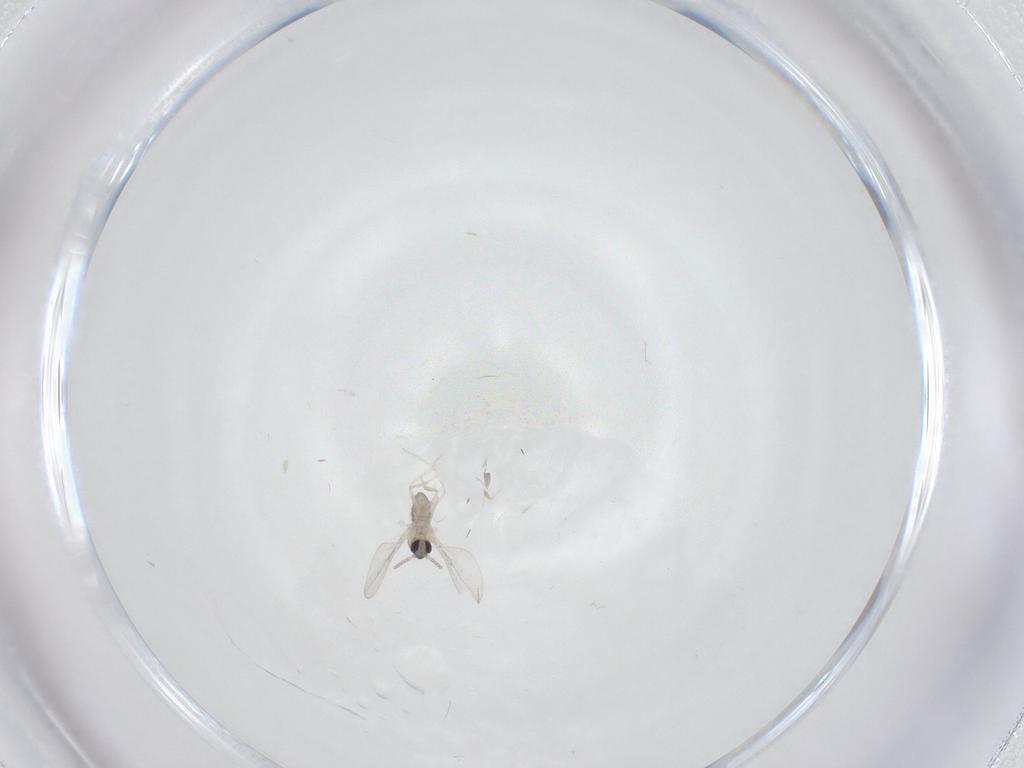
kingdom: Animalia
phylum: Arthropoda
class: Insecta
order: Diptera
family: Cecidomyiidae
